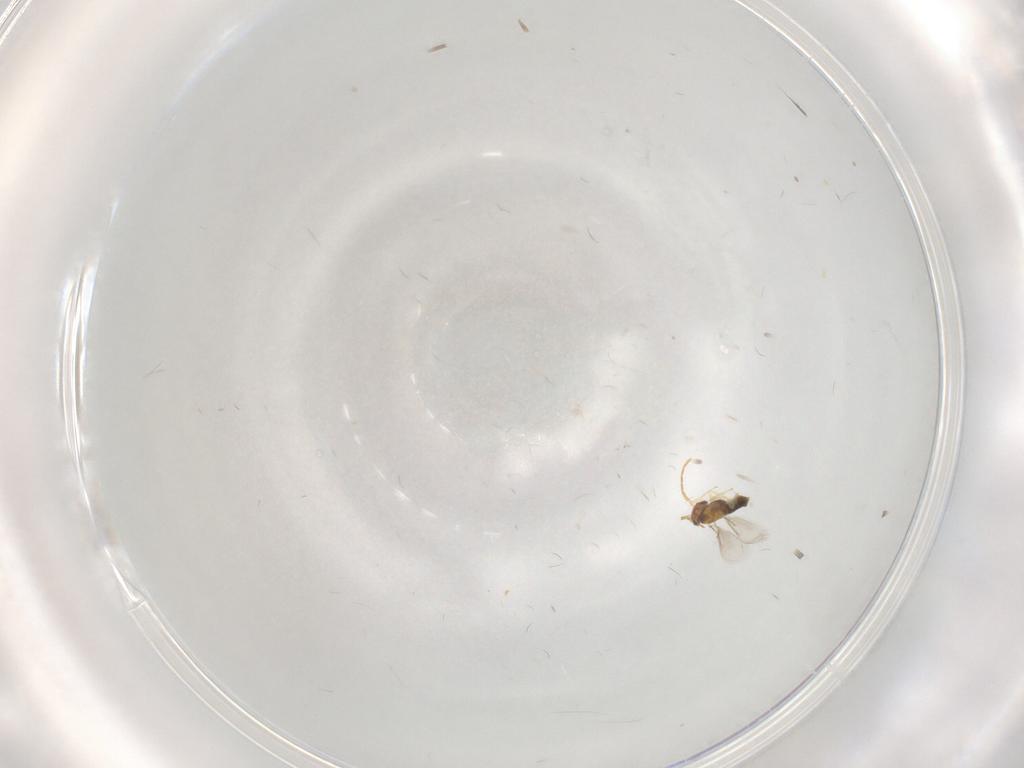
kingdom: Animalia
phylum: Arthropoda
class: Insecta
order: Hymenoptera
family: Aphelinidae
